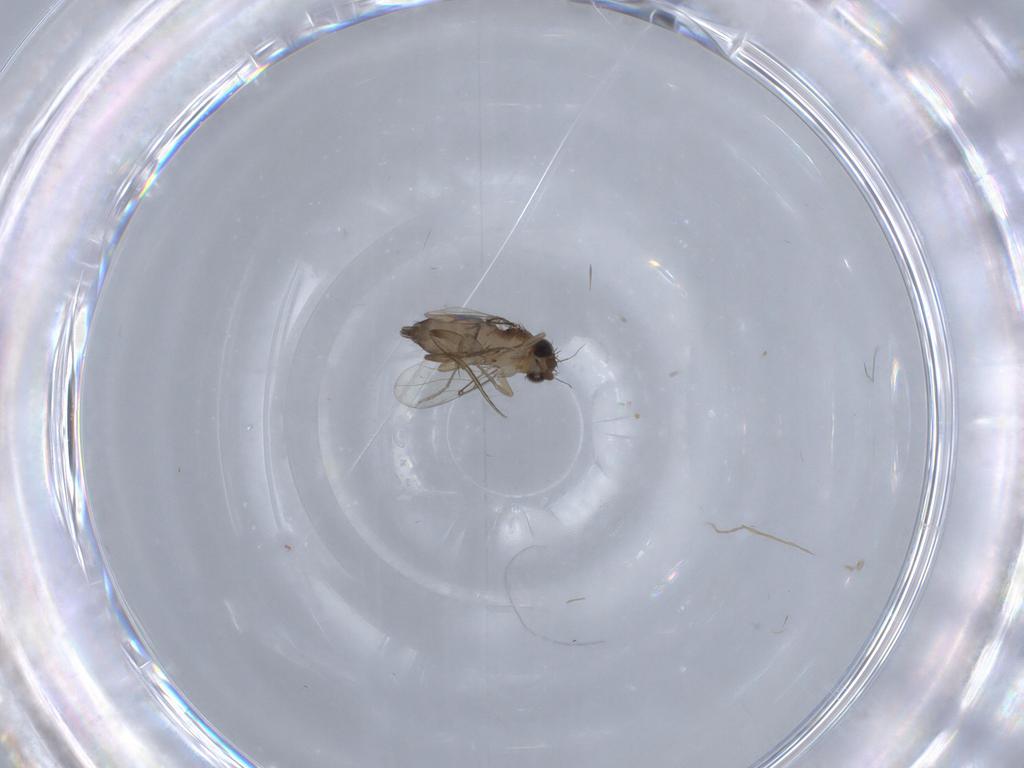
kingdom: Animalia
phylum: Arthropoda
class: Insecta
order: Diptera
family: Phoridae
